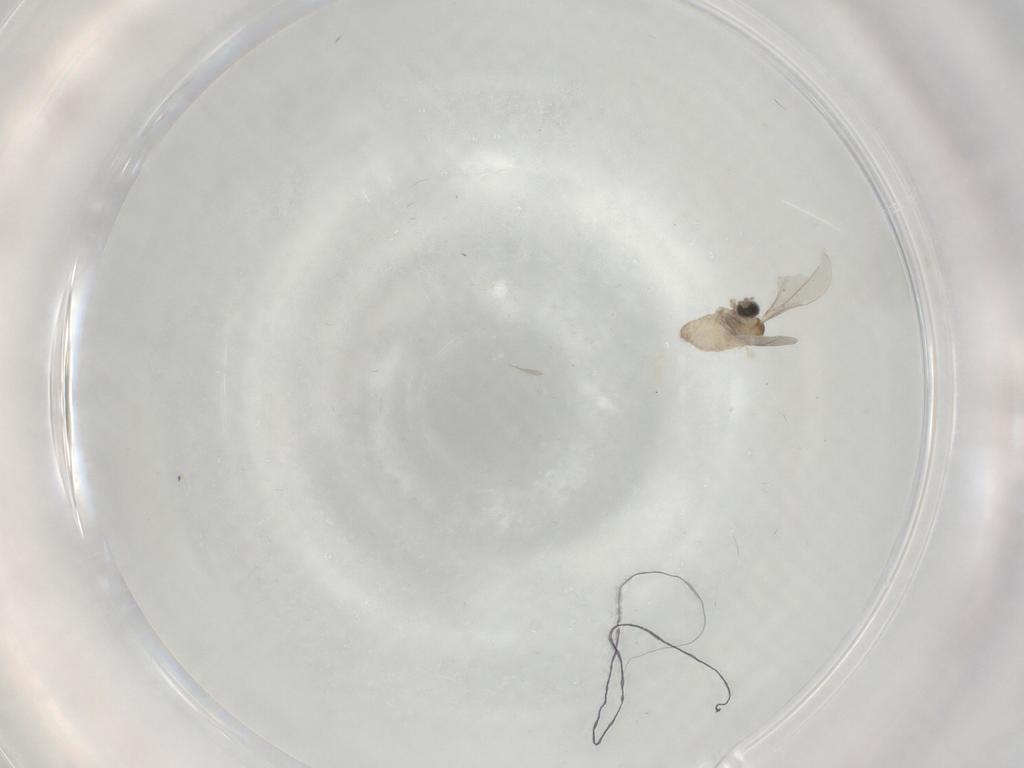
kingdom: Animalia
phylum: Arthropoda
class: Insecta
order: Diptera
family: Cecidomyiidae
